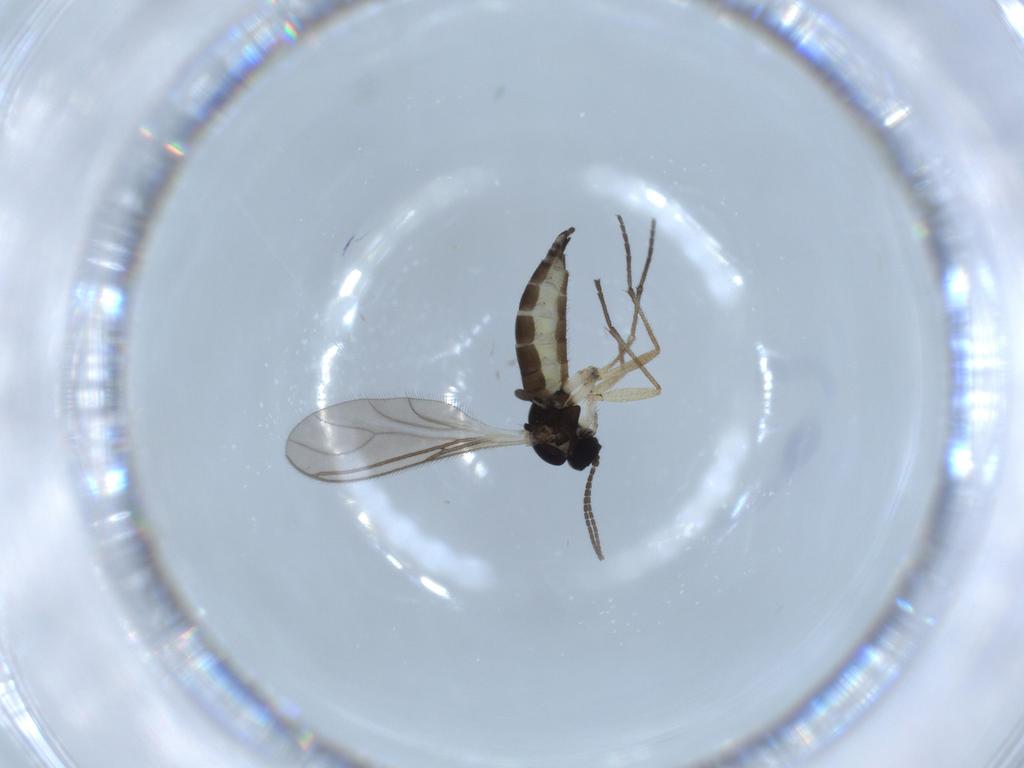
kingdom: Animalia
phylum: Arthropoda
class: Insecta
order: Diptera
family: Sciaridae
